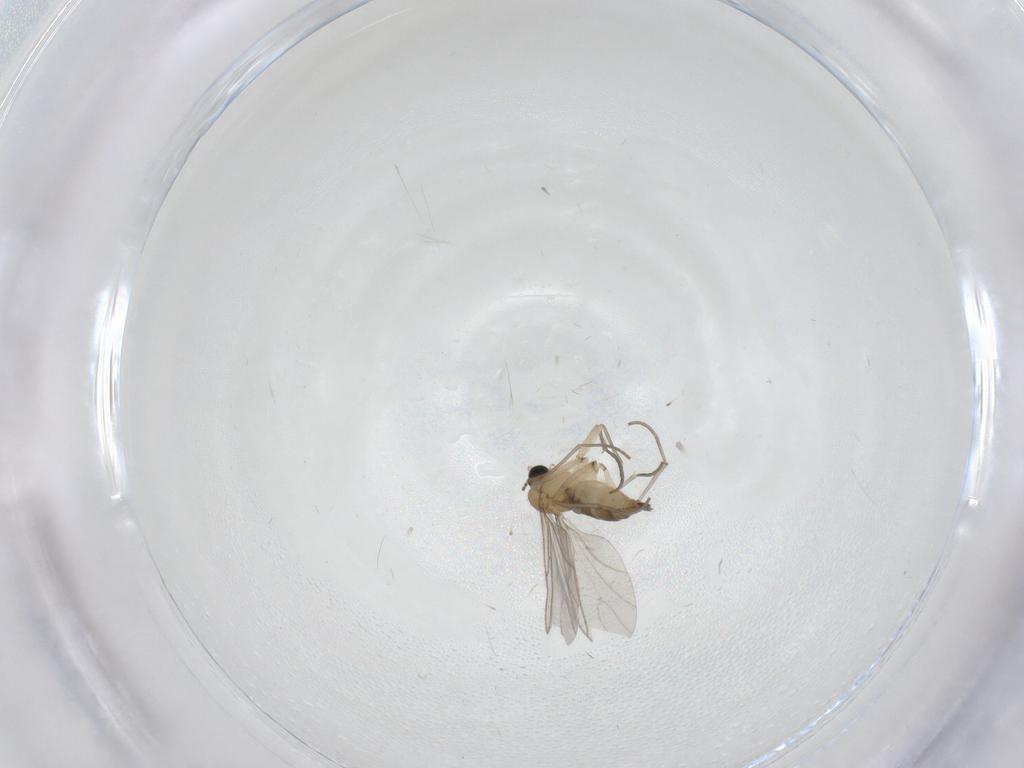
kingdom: Animalia
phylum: Arthropoda
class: Insecta
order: Diptera
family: Sciaridae
